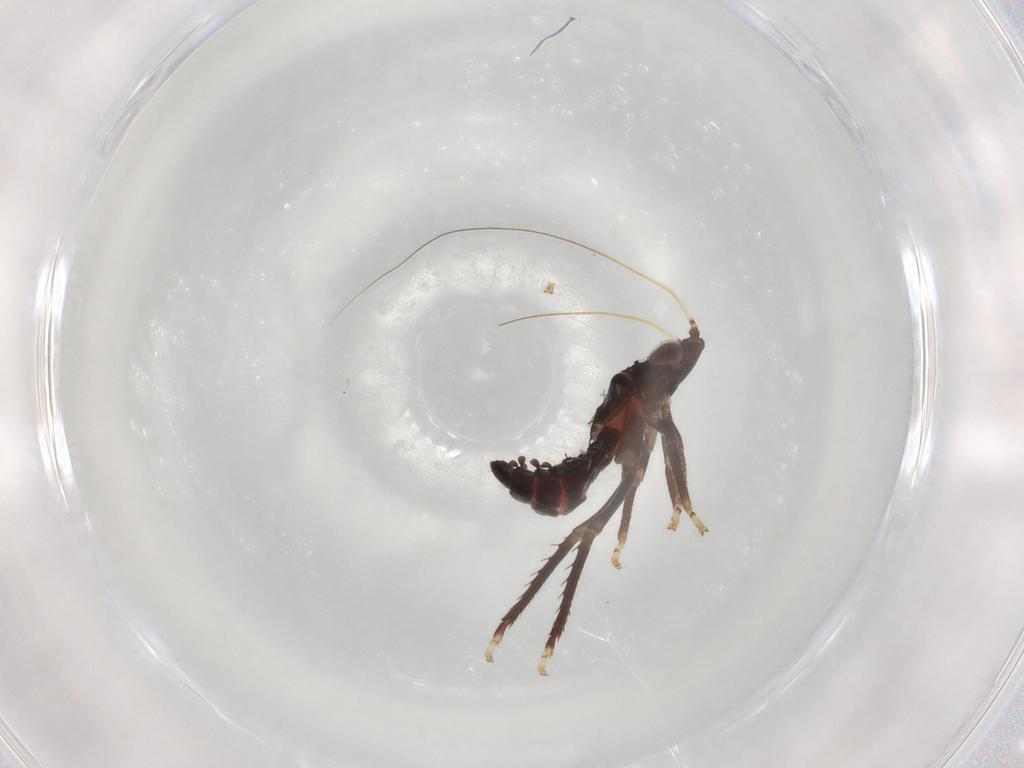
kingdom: Animalia
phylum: Arthropoda
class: Insecta
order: Hemiptera
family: Cicadellidae
